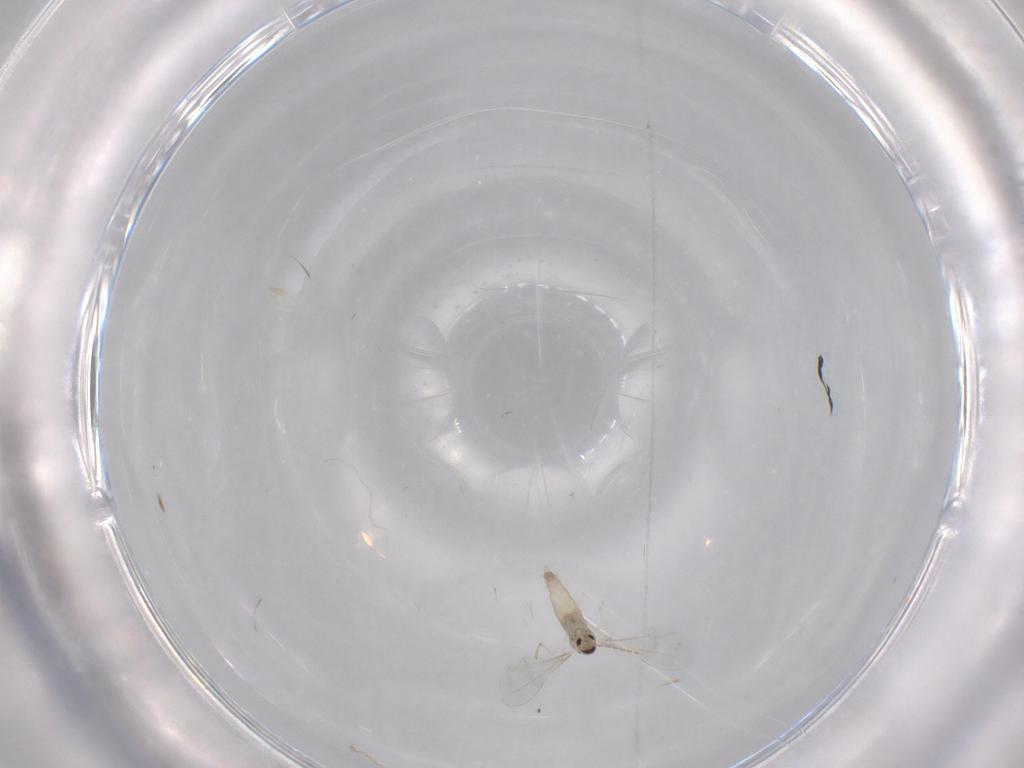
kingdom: Animalia
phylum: Arthropoda
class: Insecta
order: Diptera
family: Cecidomyiidae
